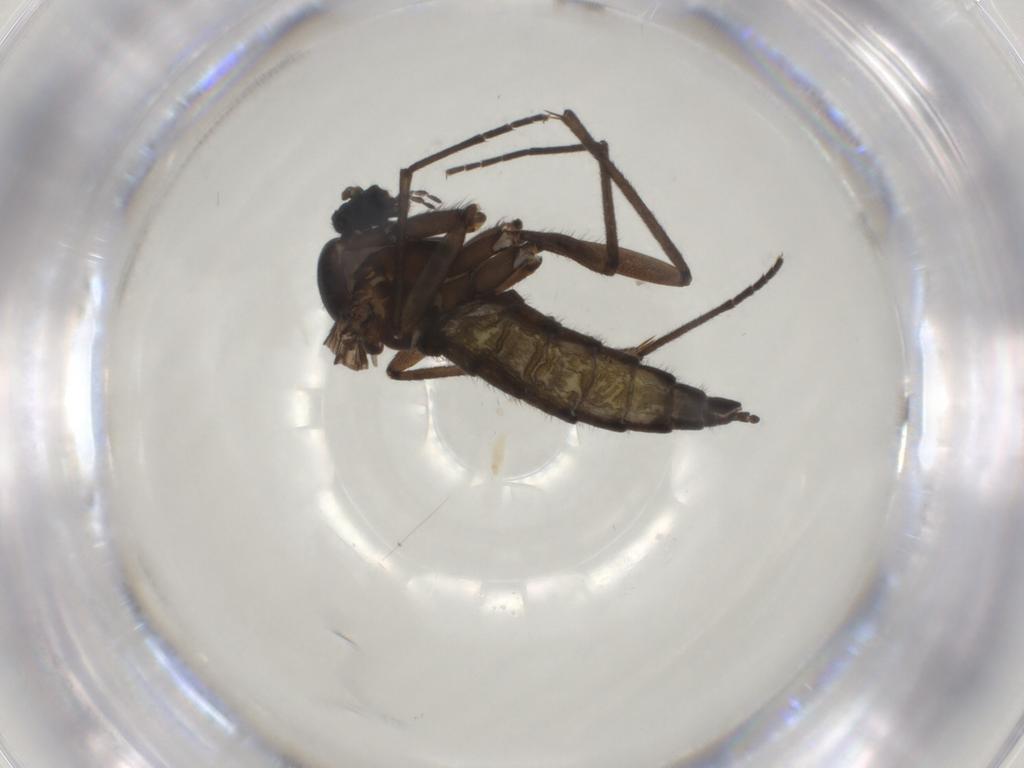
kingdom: Animalia
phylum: Arthropoda
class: Insecta
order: Diptera
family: Sciaridae
